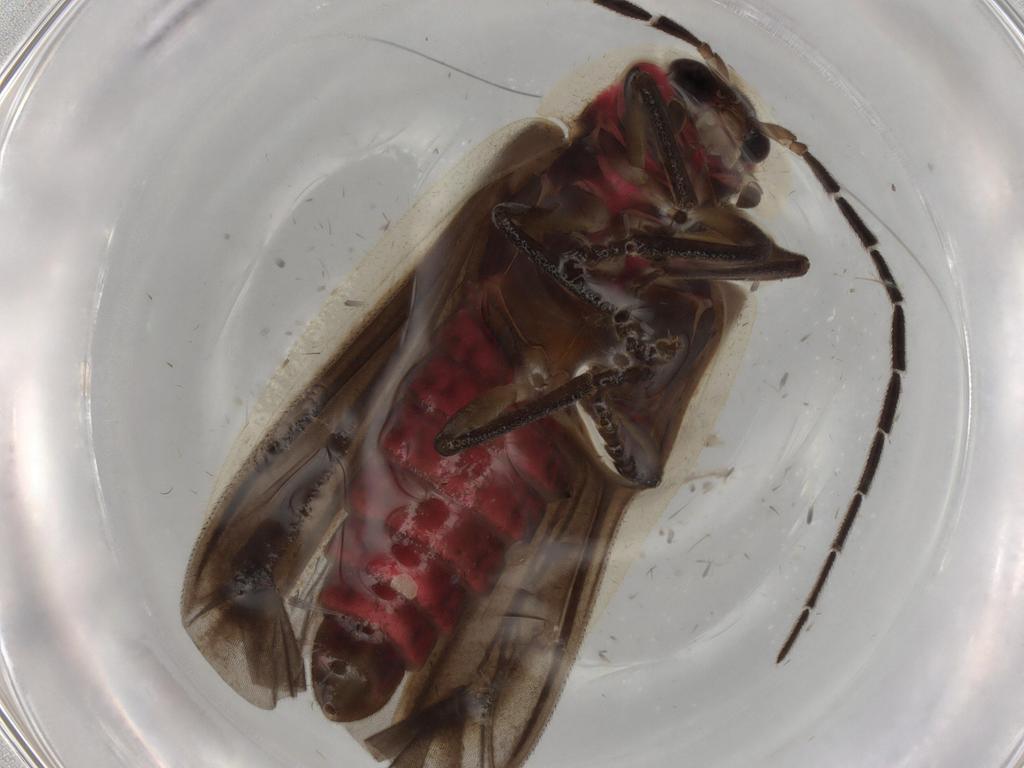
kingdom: Animalia
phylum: Arthropoda
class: Insecta
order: Coleoptera
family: Lampyridae
